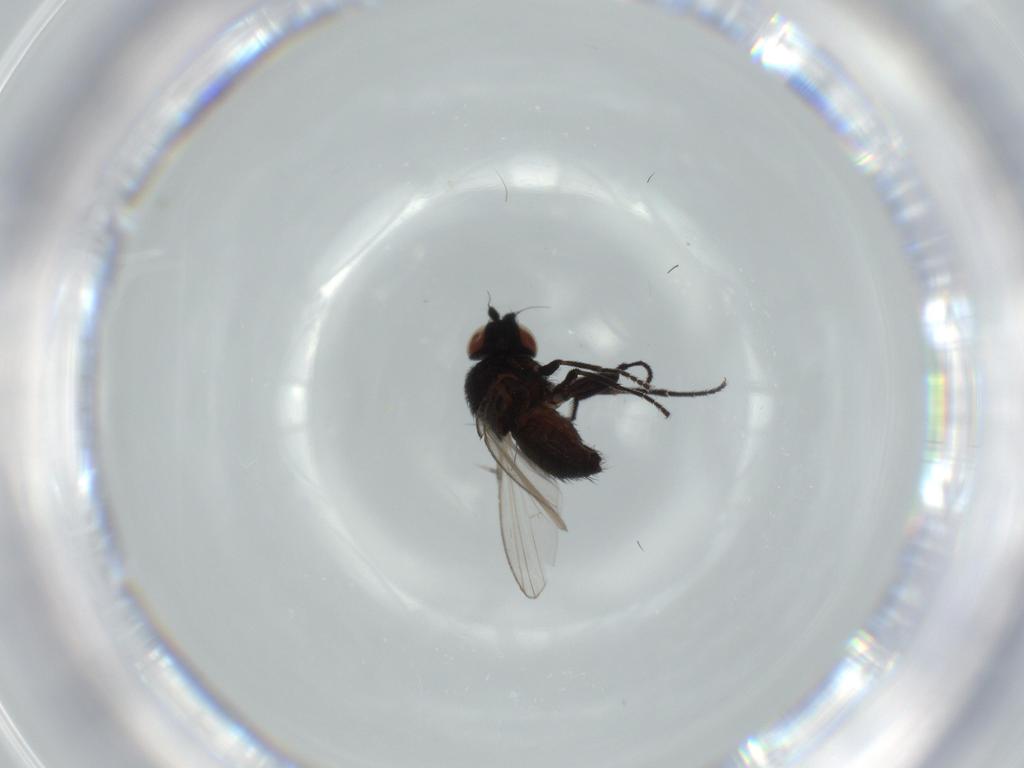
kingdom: Animalia
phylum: Arthropoda
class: Insecta
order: Diptera
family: Milichiidae
